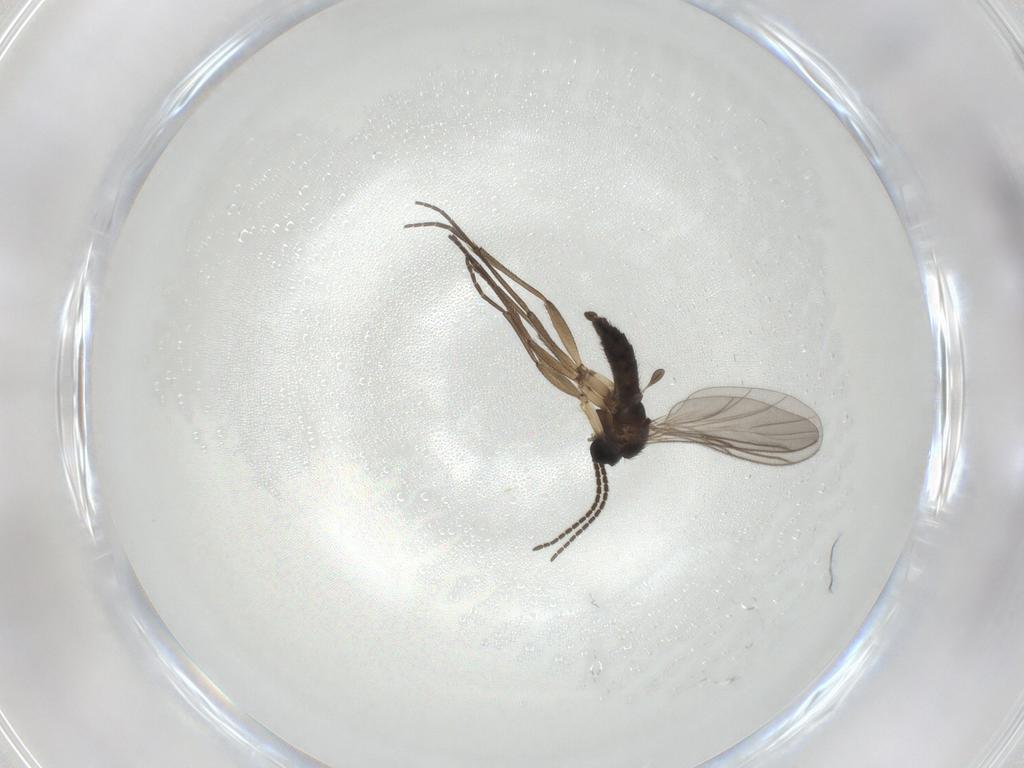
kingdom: Animalia
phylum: Arthropoda
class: Insecta
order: Diptera
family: Sciaridae
